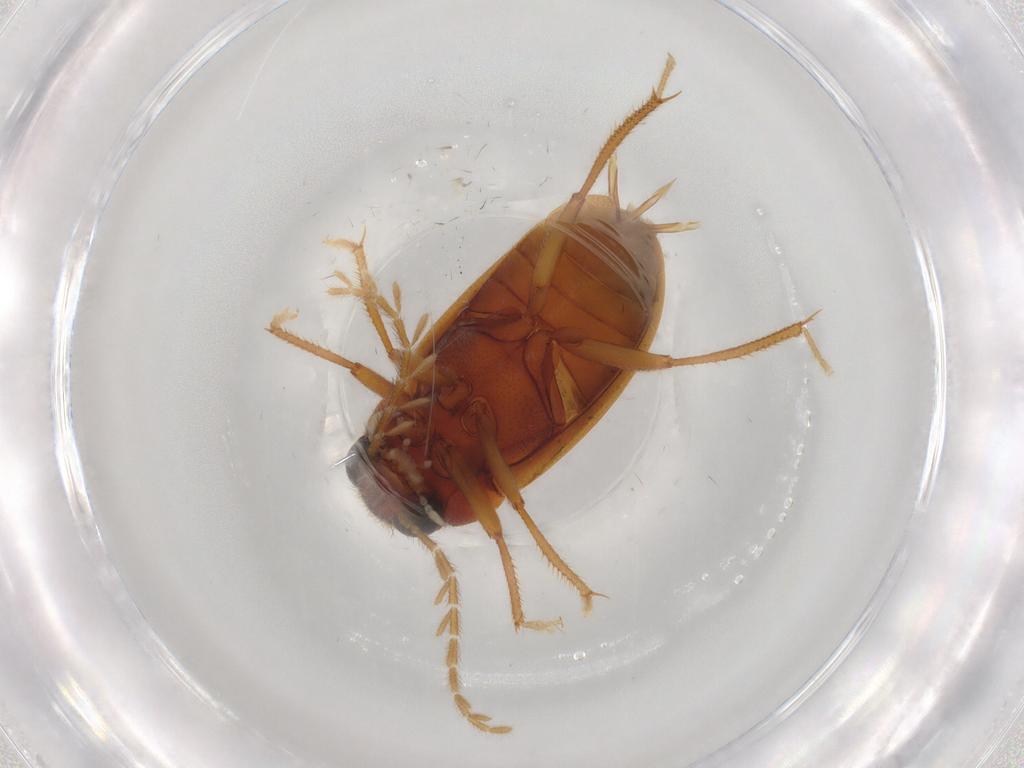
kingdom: Animalia
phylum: Arthropoda
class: Insecta
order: Coleoptera
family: Ptilodactylidae
